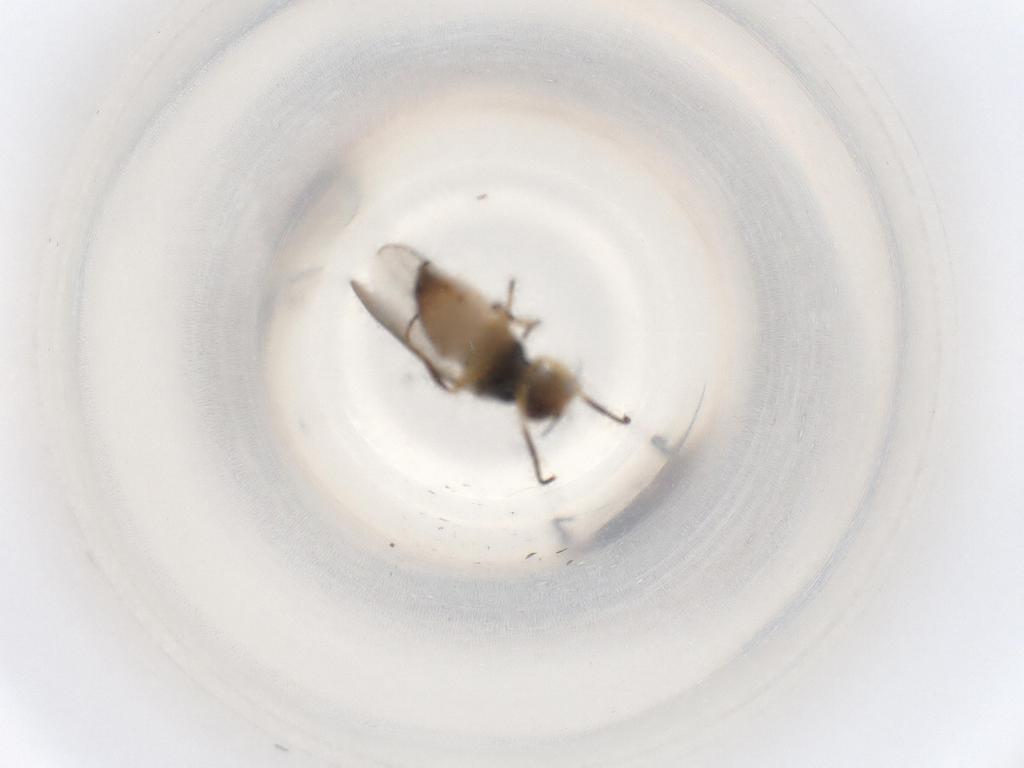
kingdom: Animalia
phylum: Arthropoda
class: Insecta
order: Diptera
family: Chloropidae
